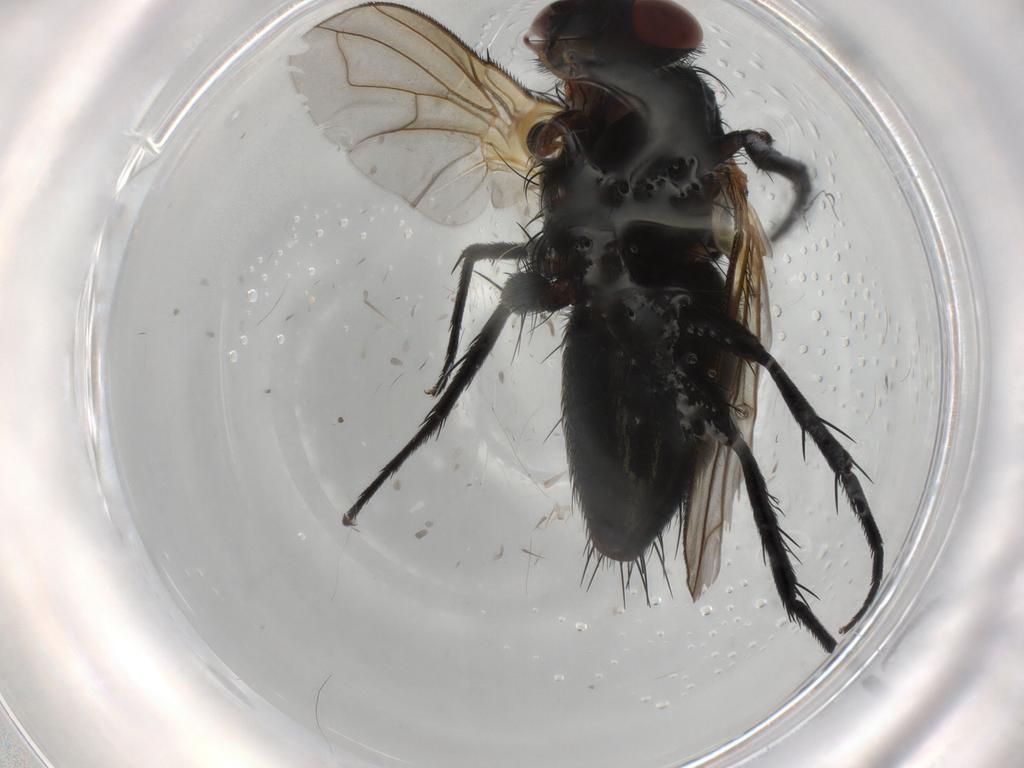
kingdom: Animalia
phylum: Arthropoda
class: Insecta
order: Diptera
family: Tachinidae
